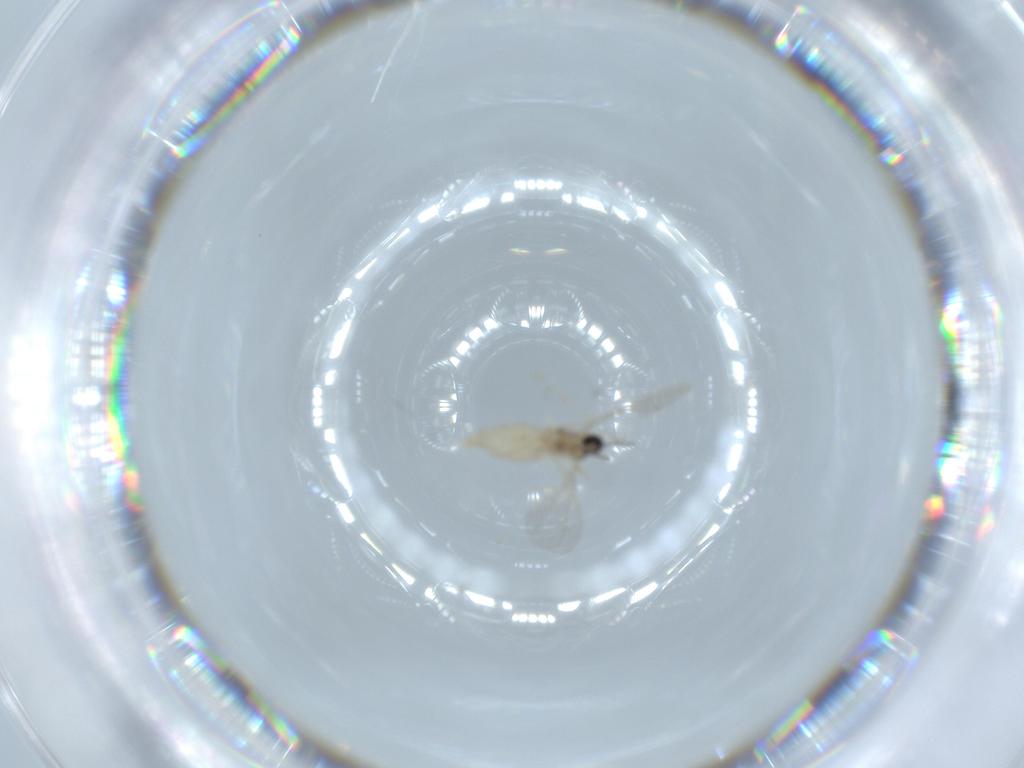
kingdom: Animalia
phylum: Arthropoda
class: Insecta
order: Diptera
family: Cecidomyiidae
